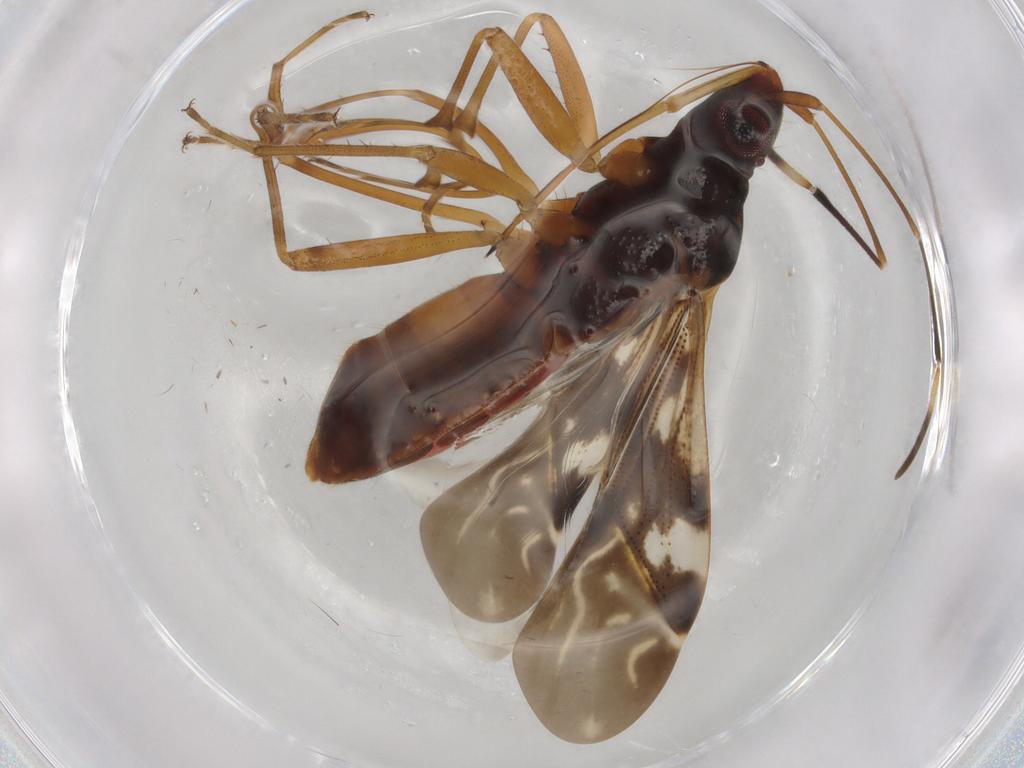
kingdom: Animalia
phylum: Arthropoda
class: Insecta
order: Hemiptera
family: Rhyparochromidae
